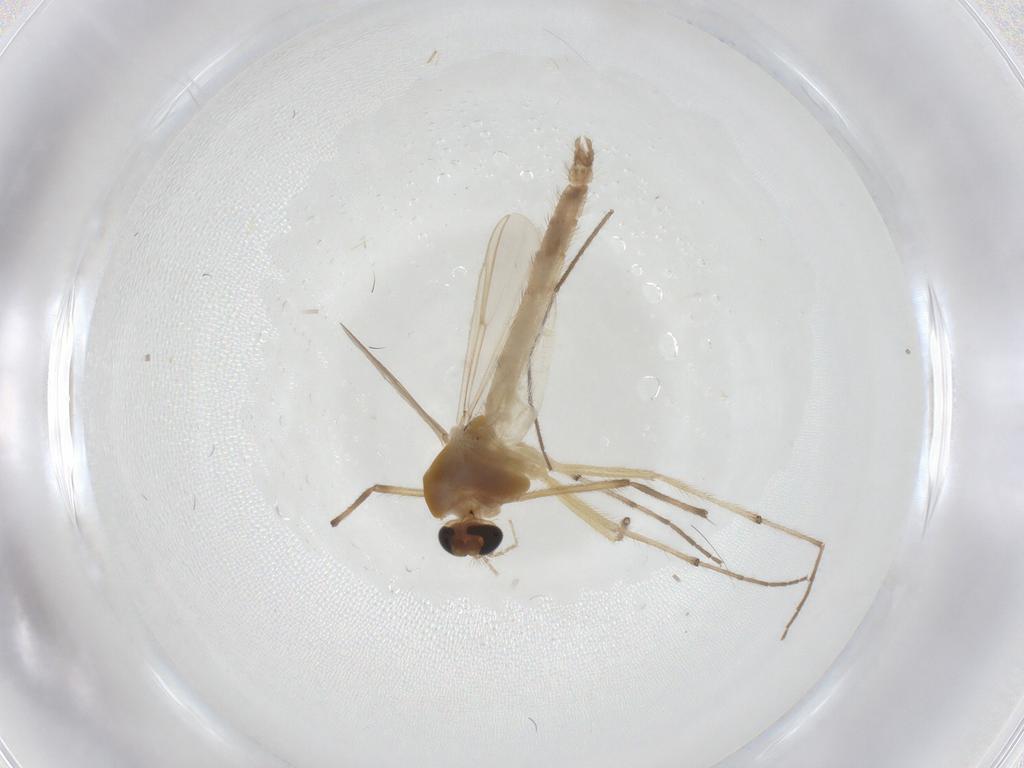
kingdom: Animalia
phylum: Arthropoda
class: Insecta
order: Diptera
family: Chironomidae
